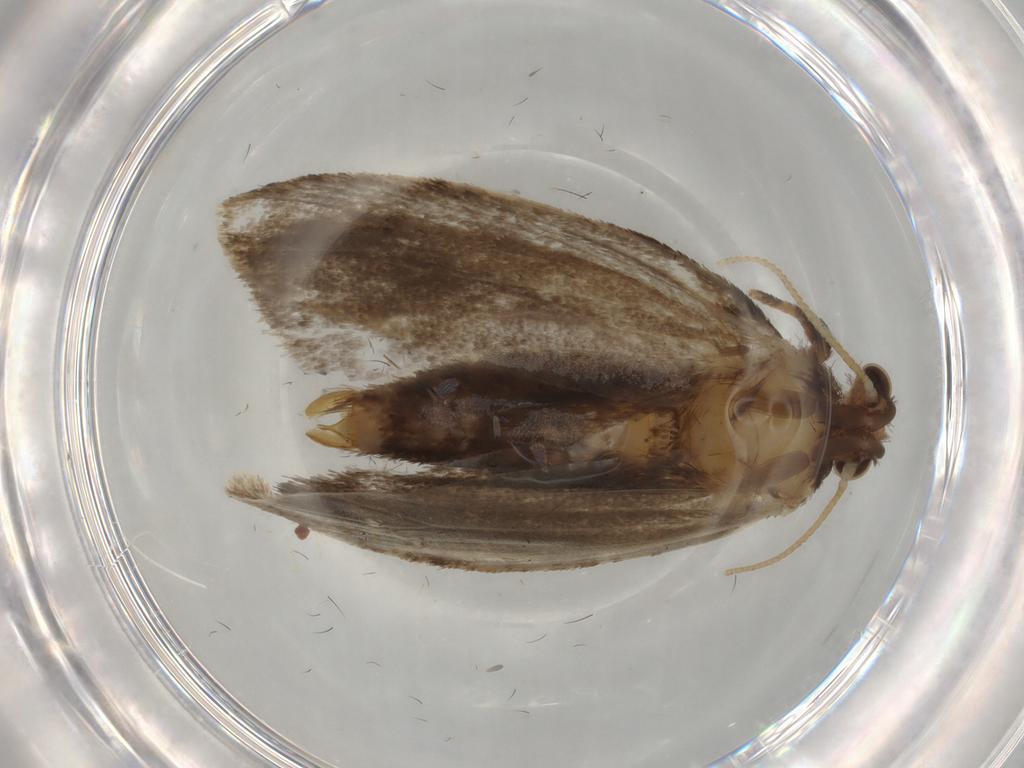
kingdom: Animalia
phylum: Arthropoda
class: Insecta
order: Lepidoptera
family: Tineidae
